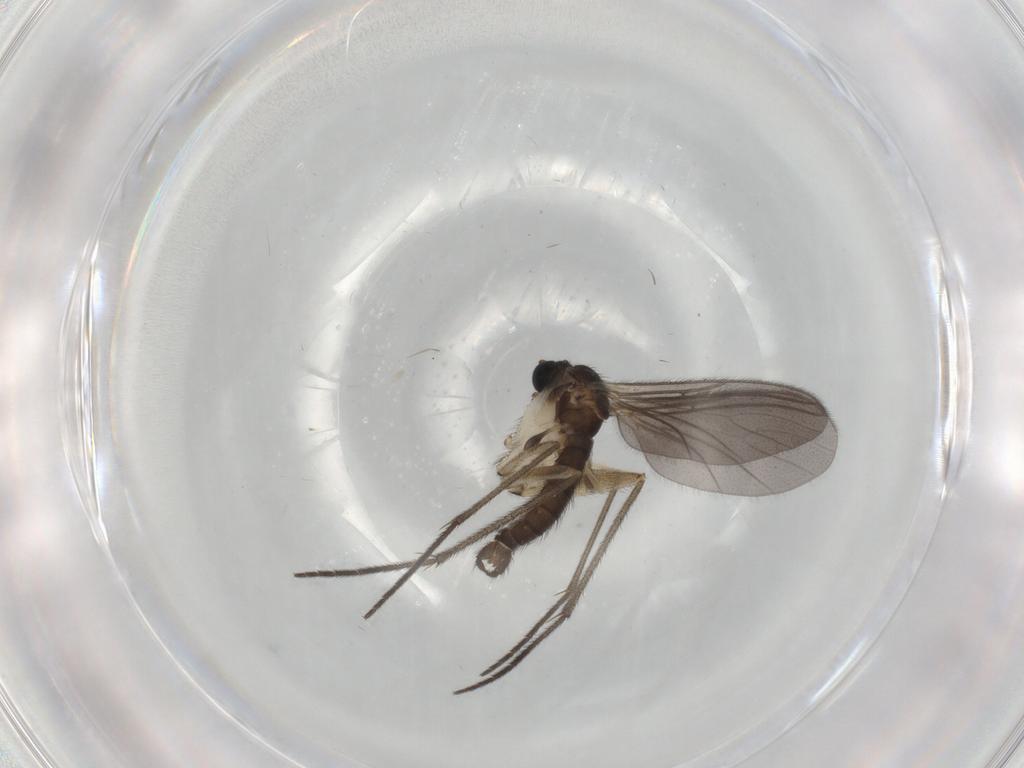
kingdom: Animalia
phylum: Arthropoda
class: Insecta
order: Diptera
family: Sciaridae
